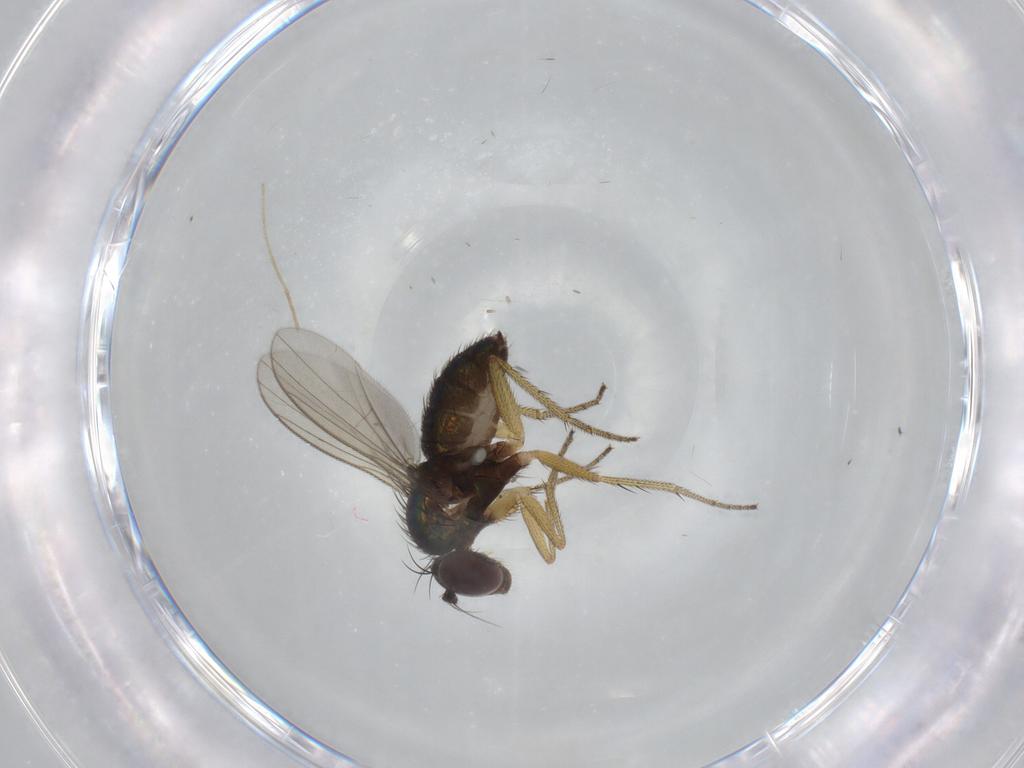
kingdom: Animalia
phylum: Arthropoda
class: Insecta
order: Diptera
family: Dolichopodidae
